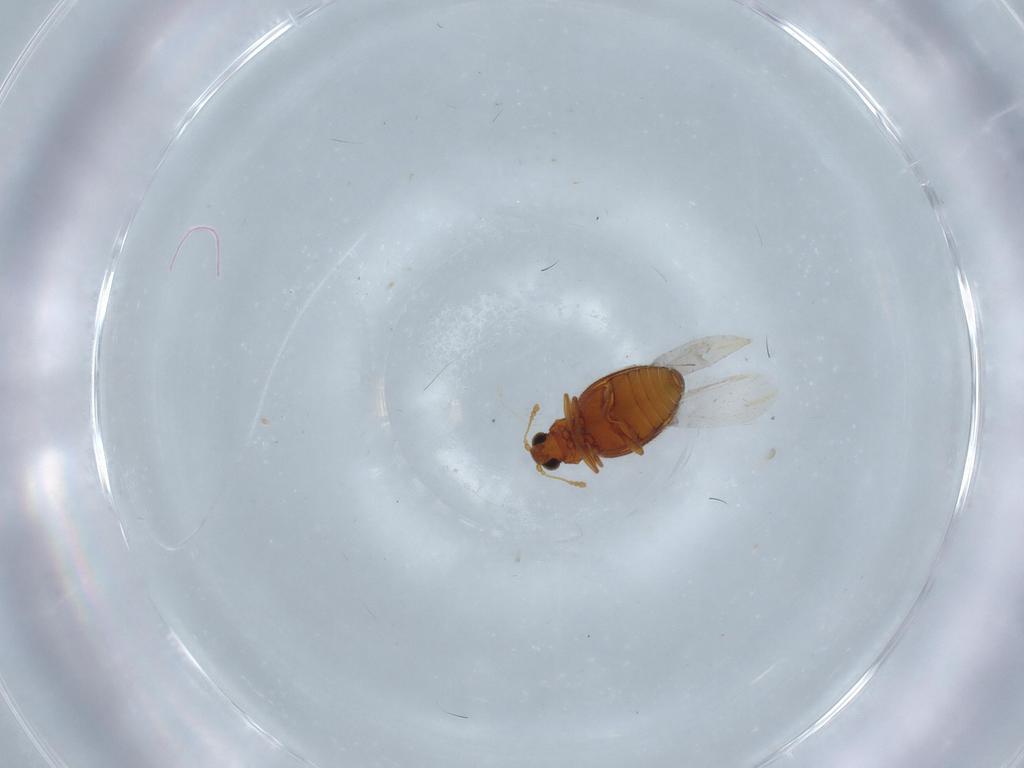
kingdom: Animalia
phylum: Arthropoda
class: Insecta
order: Coleoptera
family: Latridiidae
